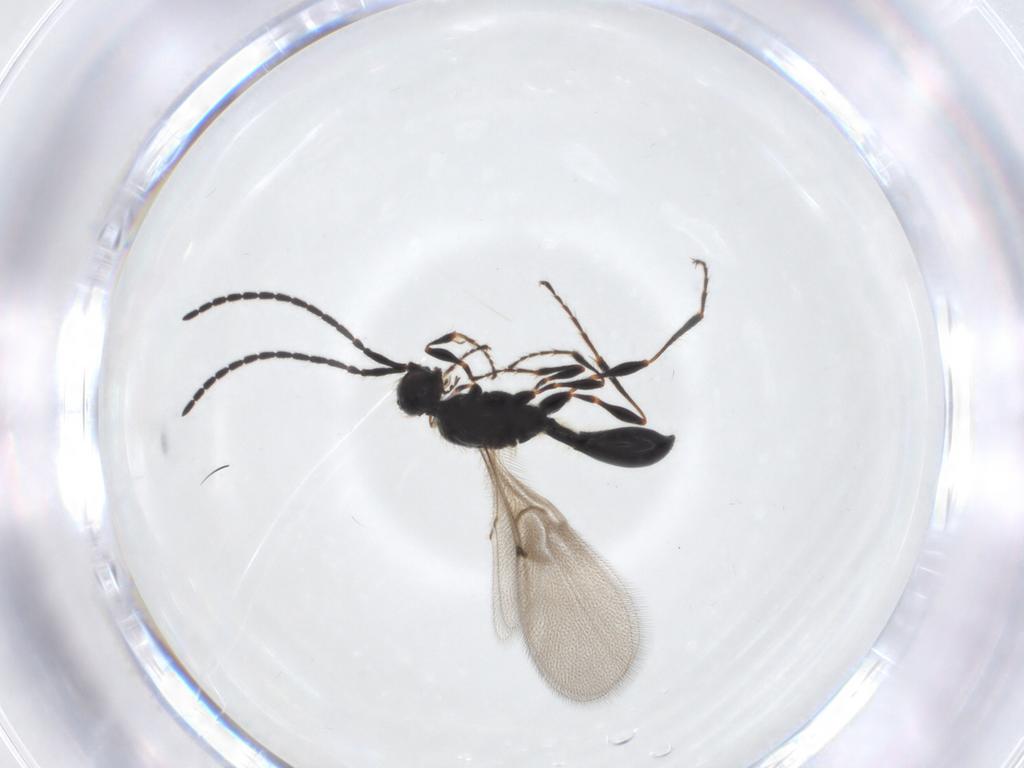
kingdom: Animalia
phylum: Arthropoda
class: Insecta
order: Hymenoptera
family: Diapriidae
